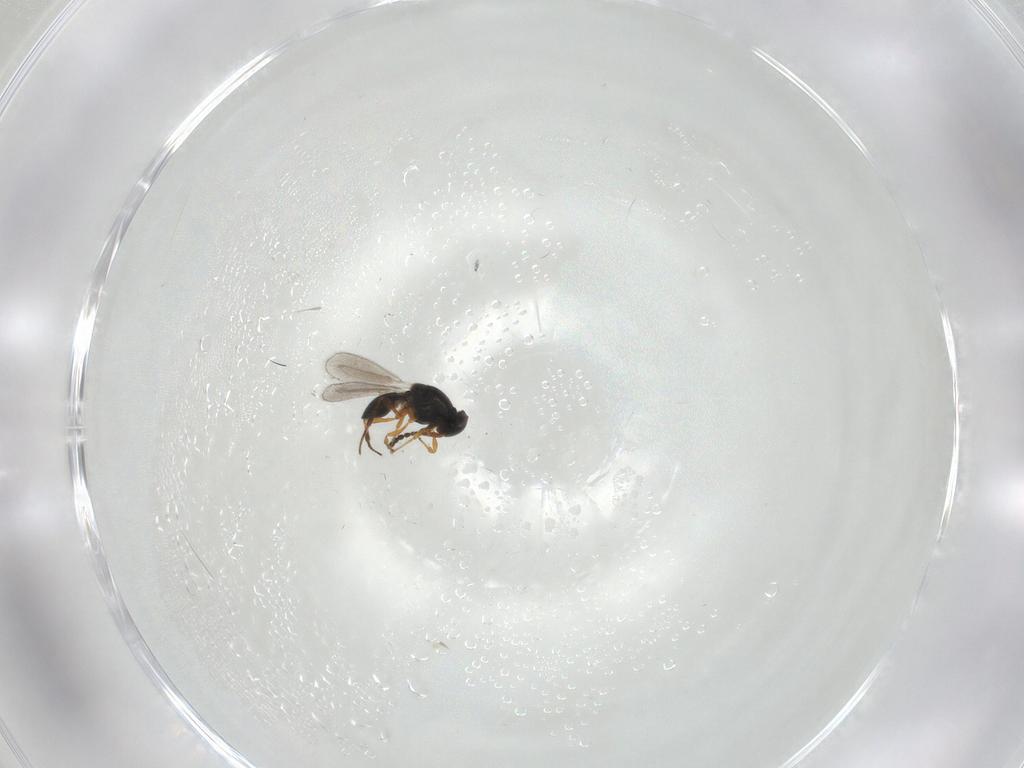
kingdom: Animalia
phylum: Arthropoda
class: Insecta
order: Hymenoptera
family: Platygastridae
